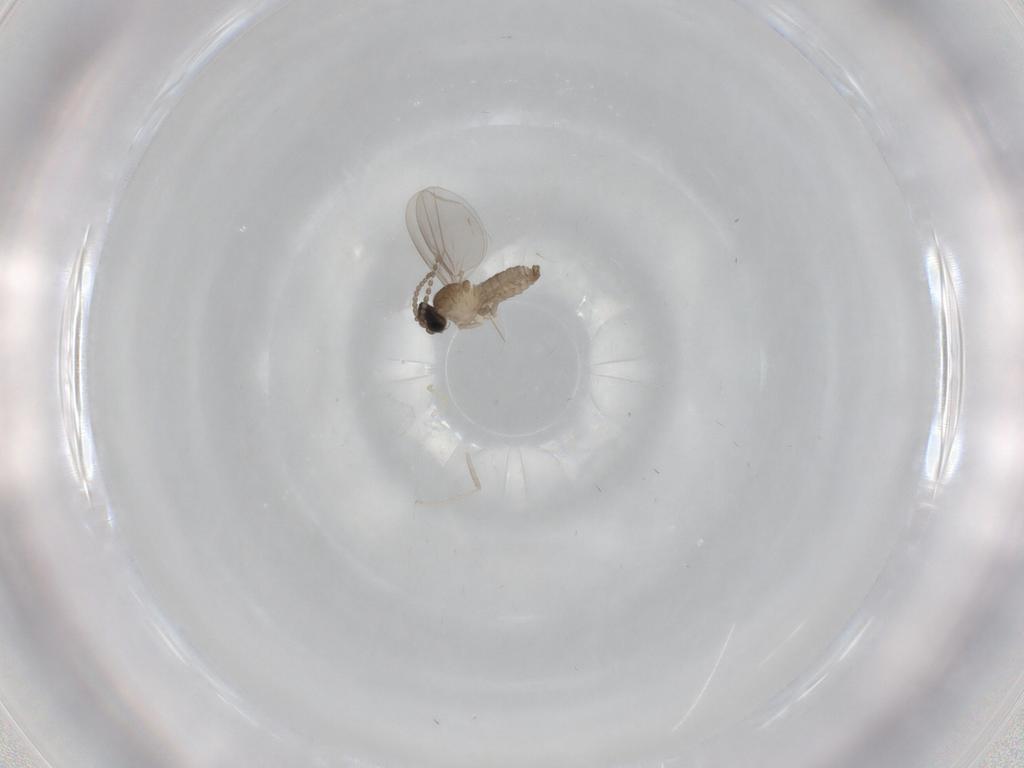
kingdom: Animalia
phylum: Arthropoda
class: Insecta
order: Diptera
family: Cecidomyiidae
